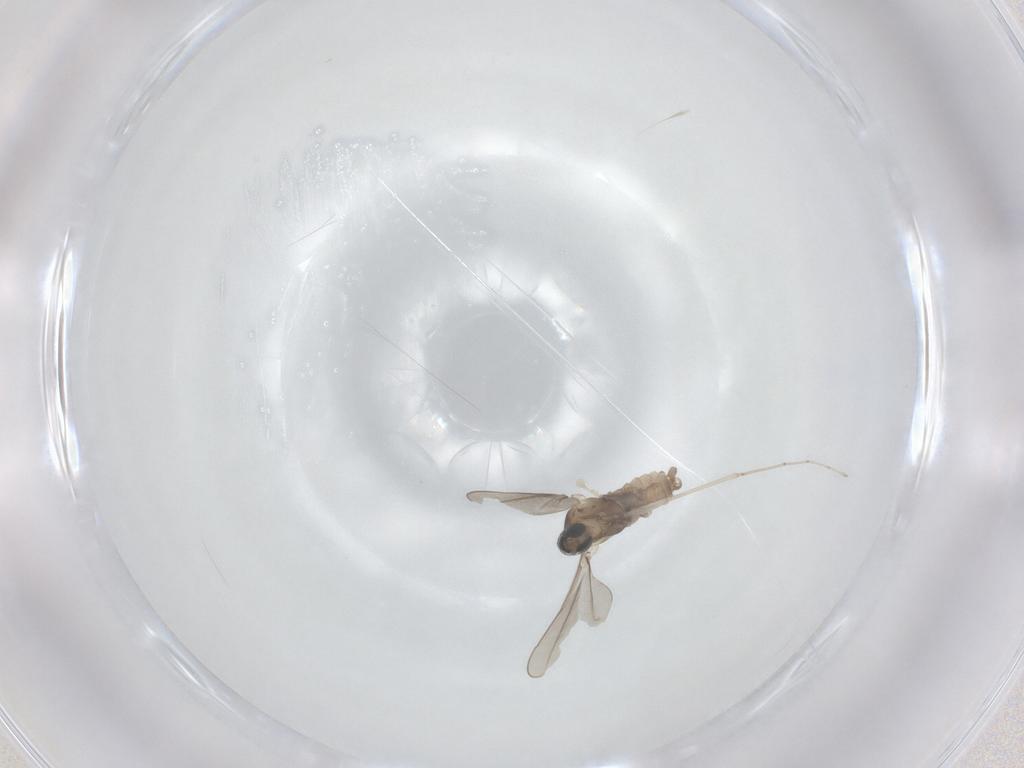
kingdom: Animalia
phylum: Arthropoda
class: Insecta
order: Diptera
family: Cecidomyiidae
